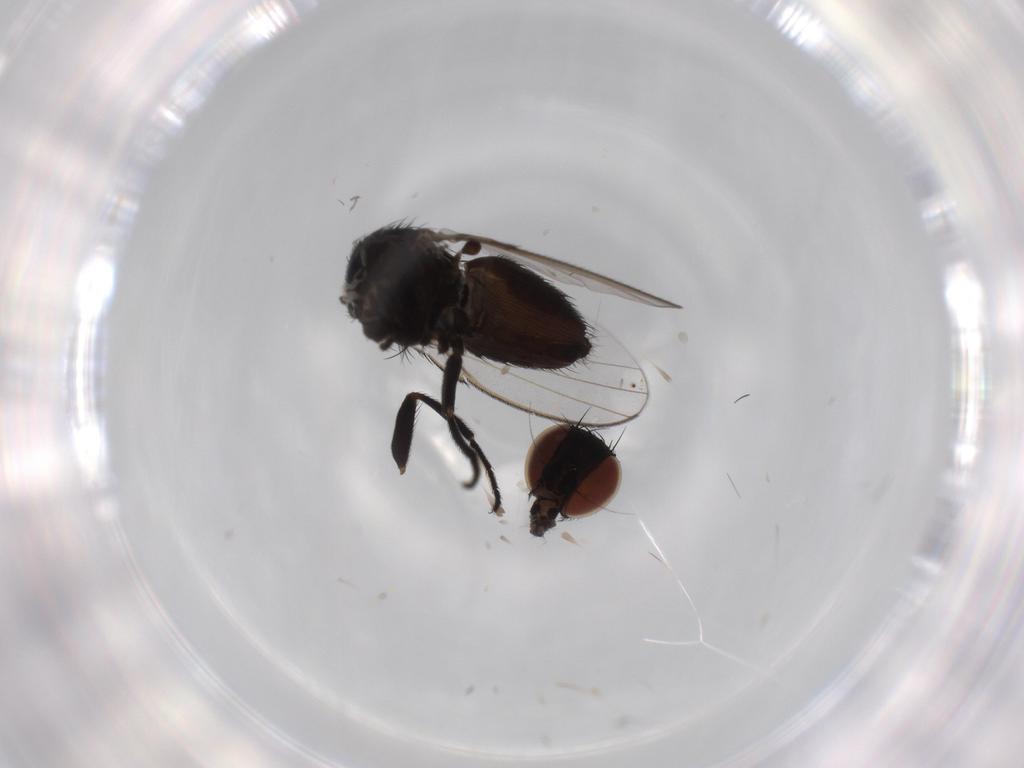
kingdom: Animalia
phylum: Arthropoda
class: Insecta
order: Diptera
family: Milichiidae
